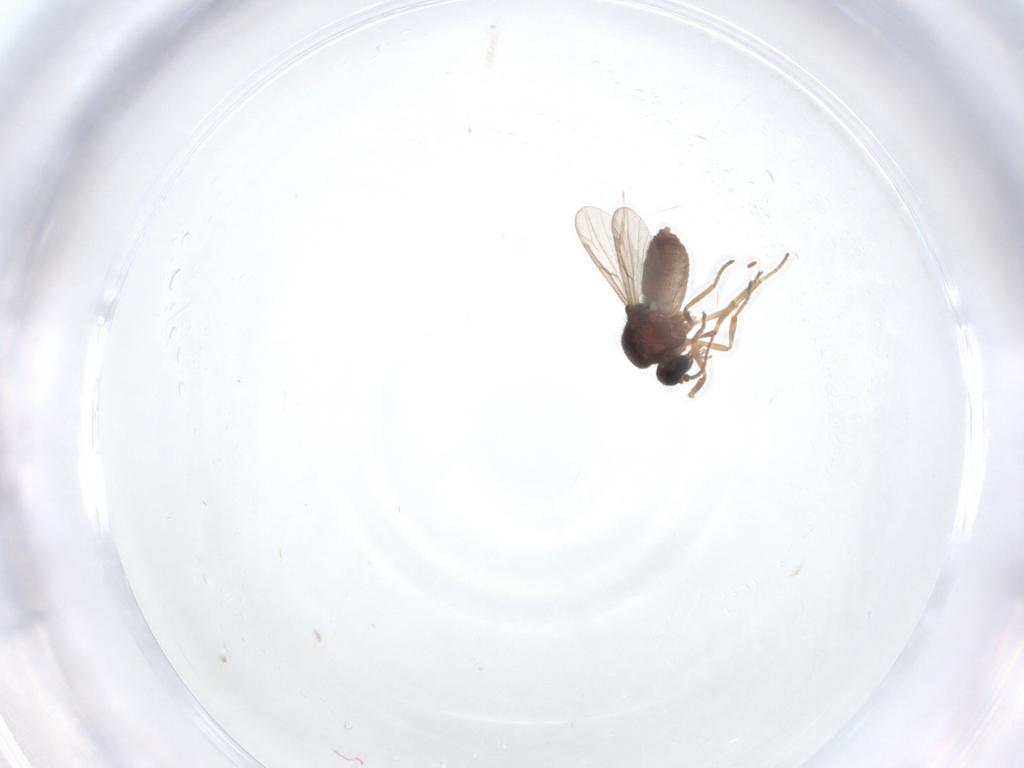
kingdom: Animalia
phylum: Arthropoda
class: Insecta
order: Diptera
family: Ceratopogonidae
